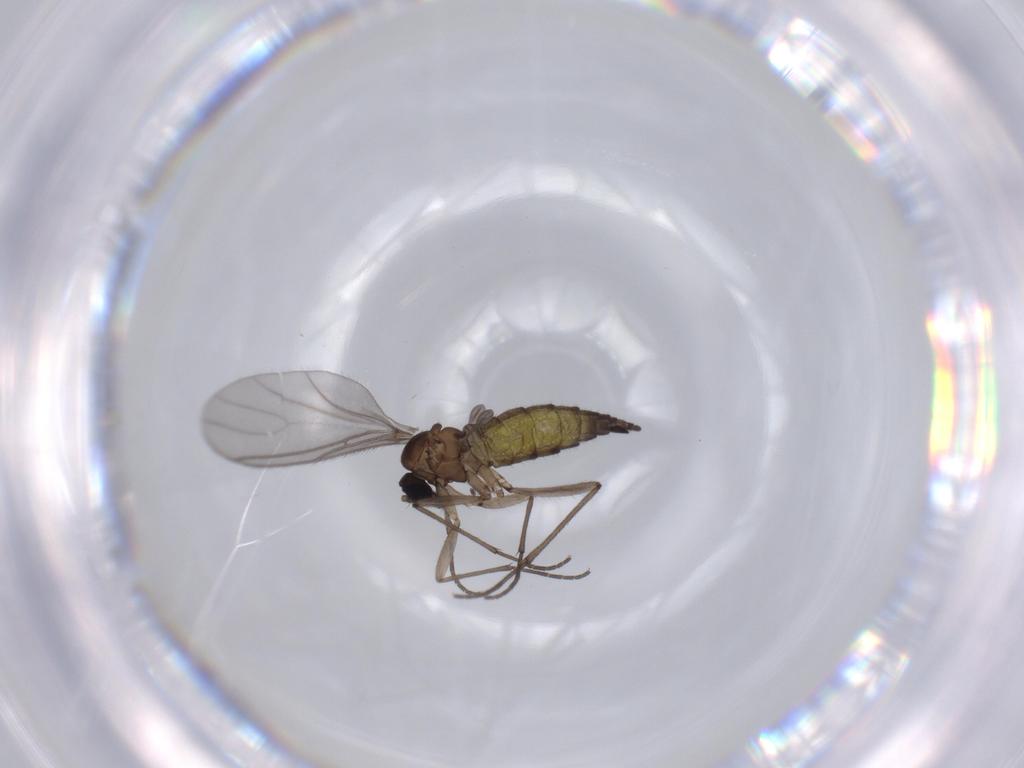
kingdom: Animalia
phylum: Arthropoda
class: Insecta
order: Diptera
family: Sciaridae
